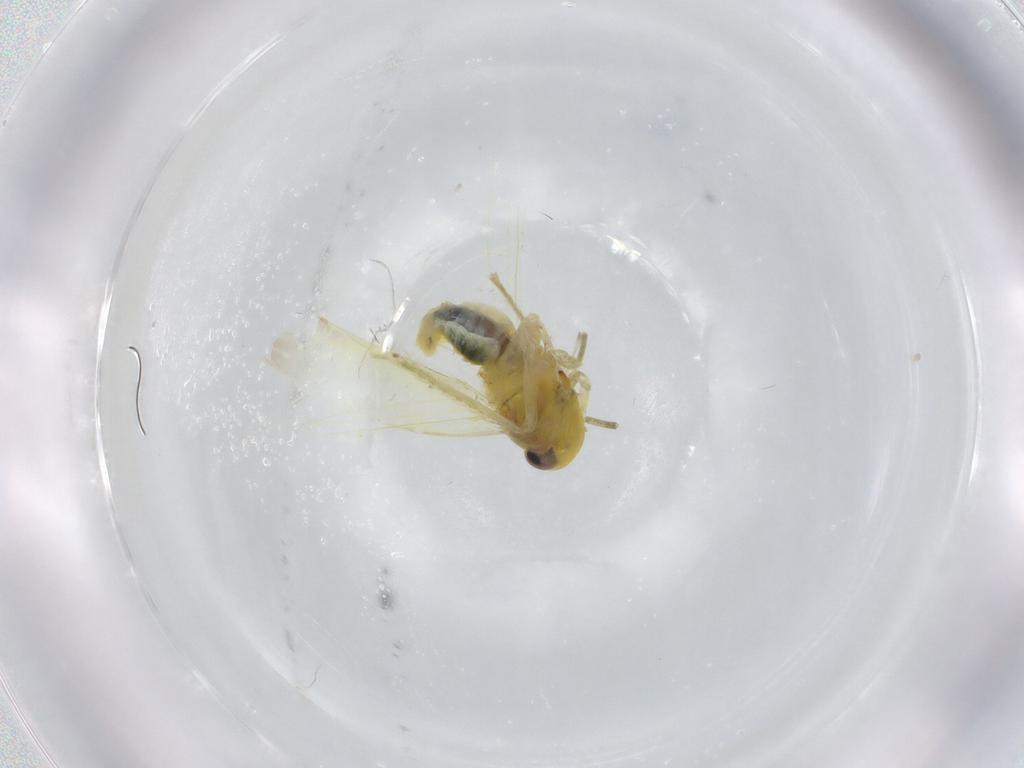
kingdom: Animalia
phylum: Arthropoda
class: Insecta
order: Hemiptera
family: Cicadellidae
